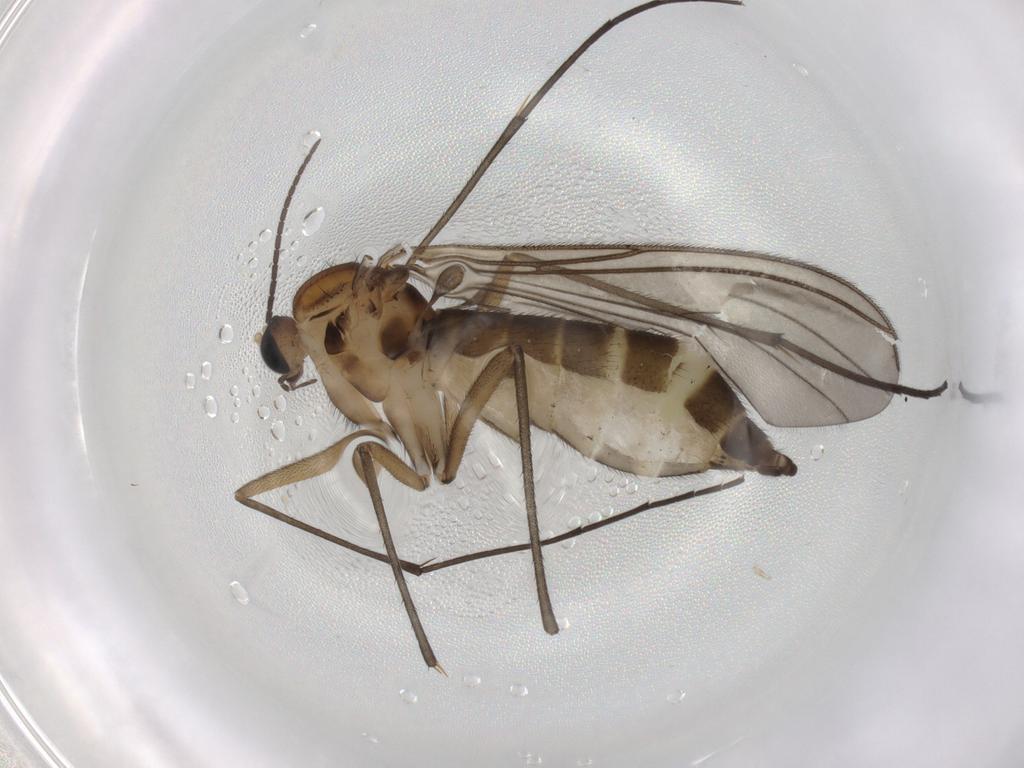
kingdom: Animalia
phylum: Arthropoda
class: Insecta
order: Diptera
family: Sciaridae
